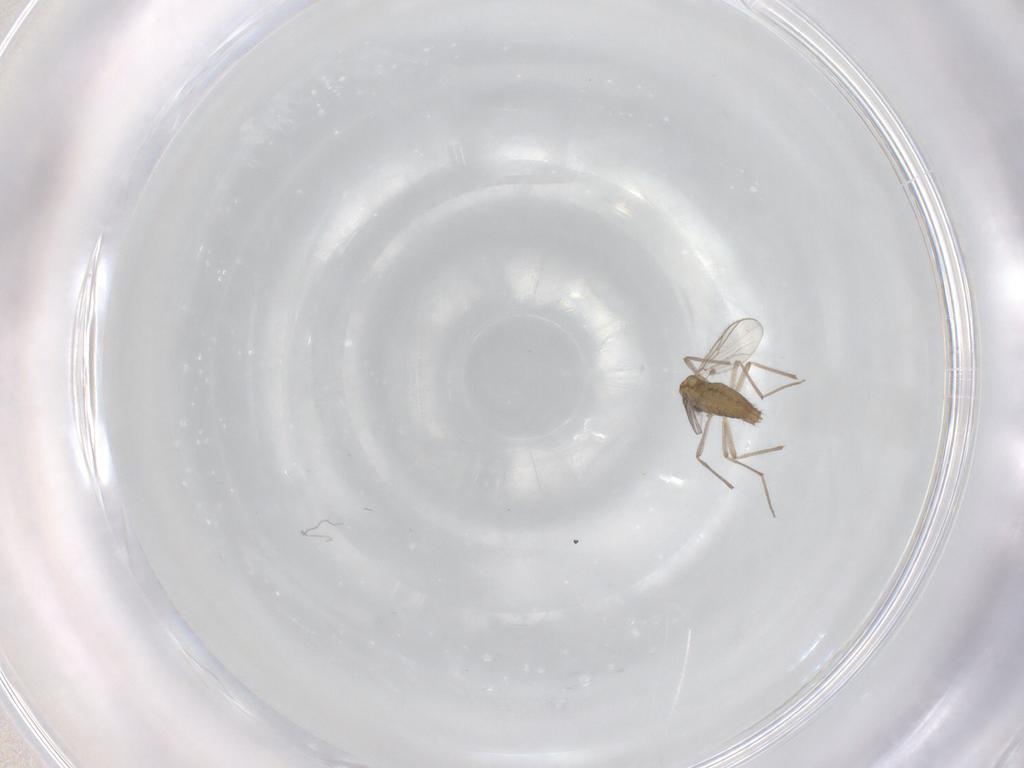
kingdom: Animalia
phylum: Arthropoda
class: Insecta
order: Diptera
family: Chironomidae
